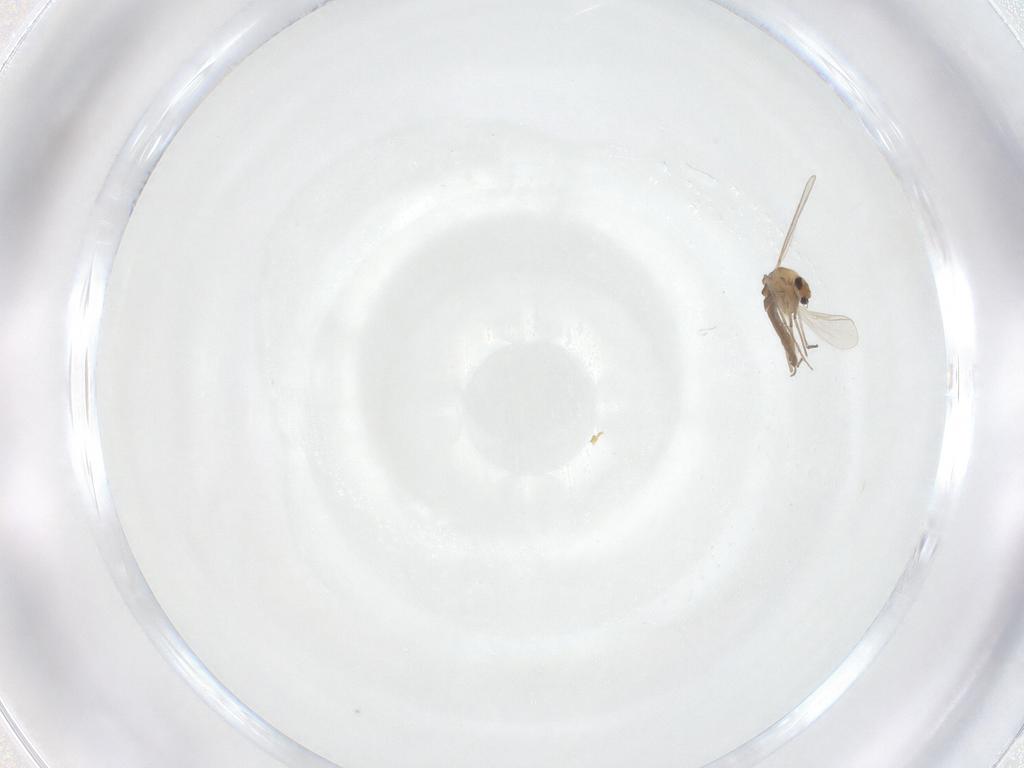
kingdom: Animalia
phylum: Arthropoda
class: Insecta
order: Diptera
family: Chironomidae
